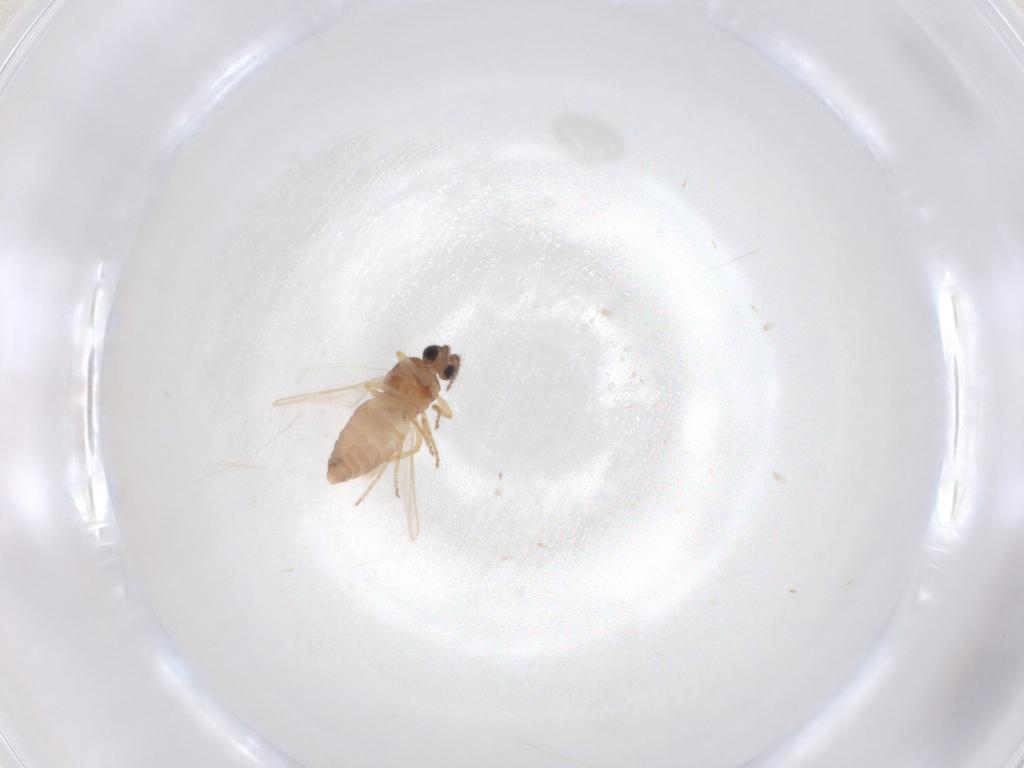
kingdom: Animalia
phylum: Arthropoda
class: Insecta
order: Diptera
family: Ceratopogonidae
